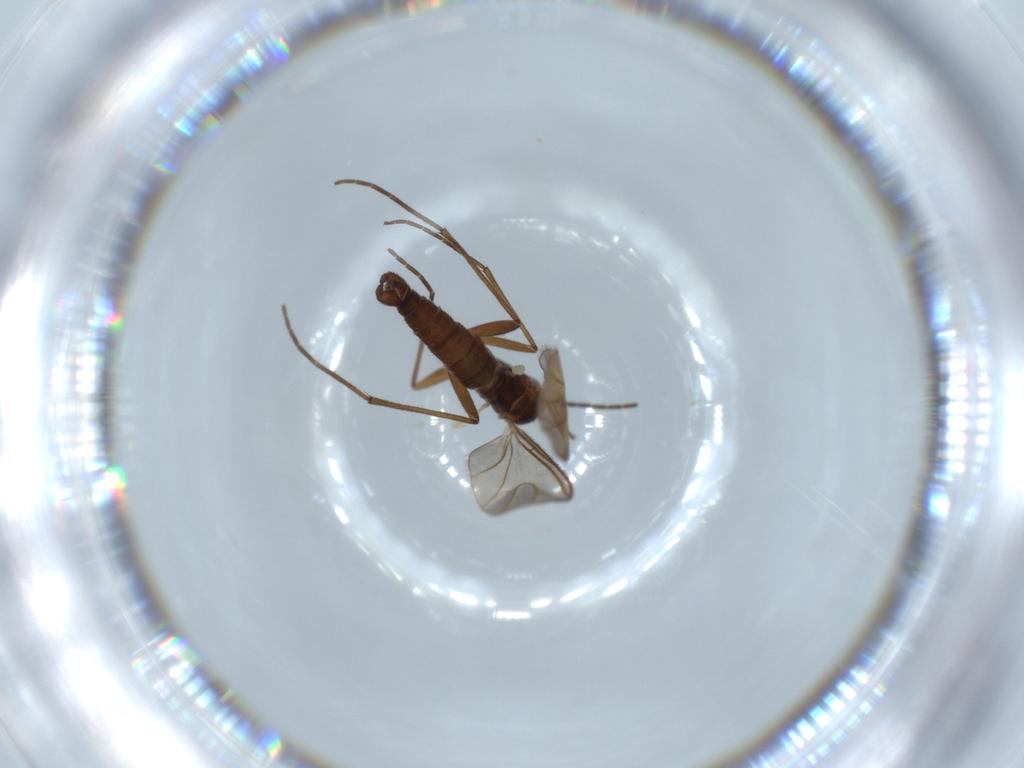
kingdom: Animalia
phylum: Arthropoda
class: Insecta
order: Diptera
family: Sciaridae
